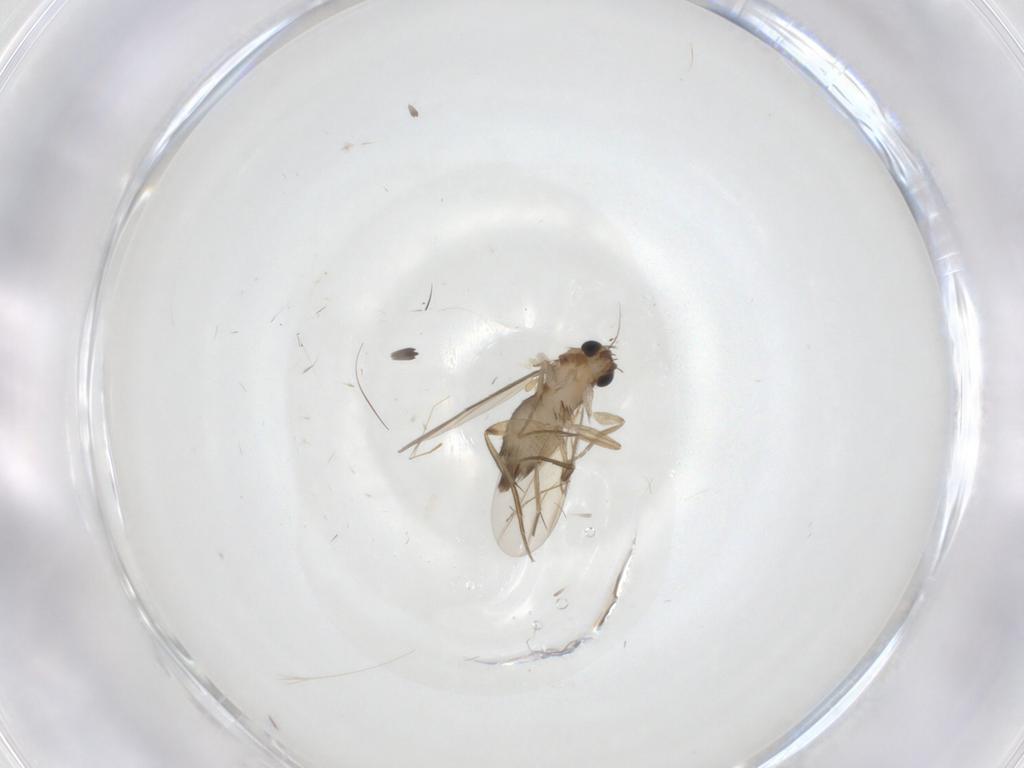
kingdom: Animalia
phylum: Arthropoda
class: Insecta
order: Diptera
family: Phoridae
